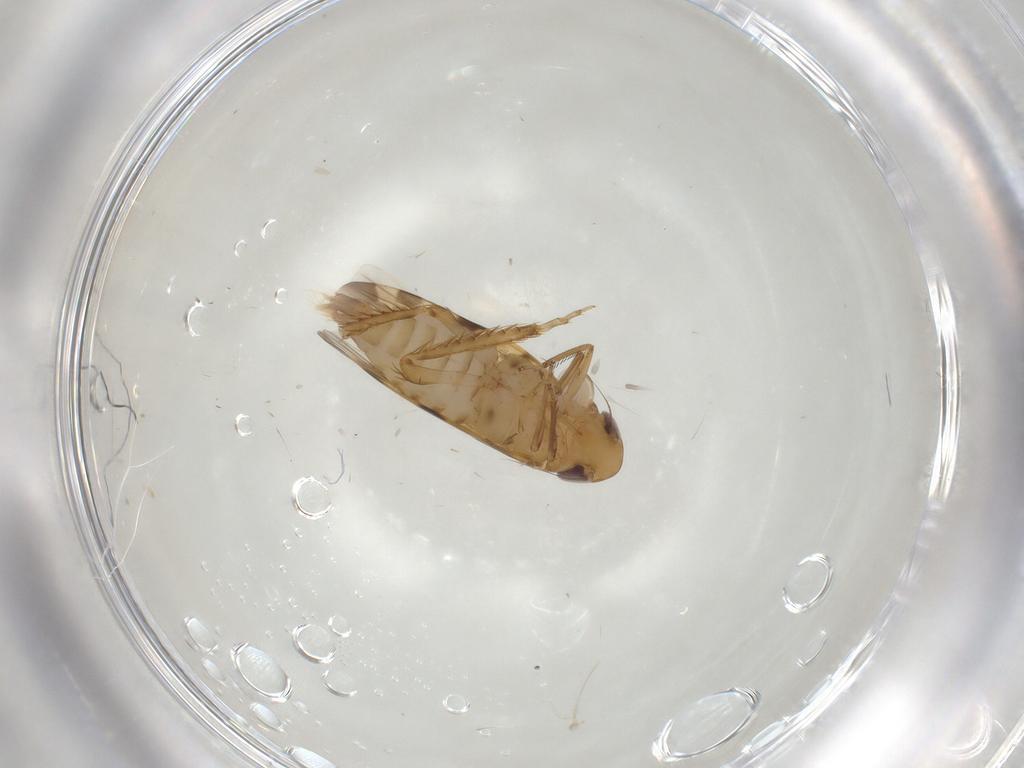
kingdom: Animalia
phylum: Arthropoda
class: Insecta
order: Hemiptera
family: Cicadellidae
